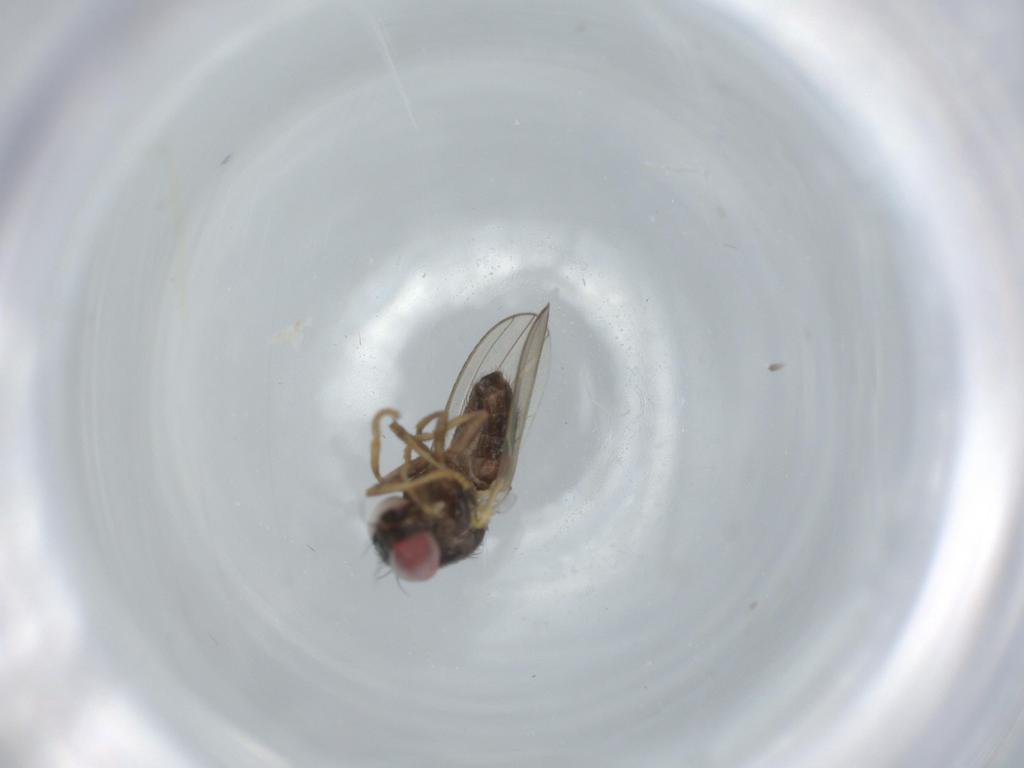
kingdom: Animalia
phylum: Arthropoda
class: Insecta
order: Diptera
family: Chamaemyiidae
